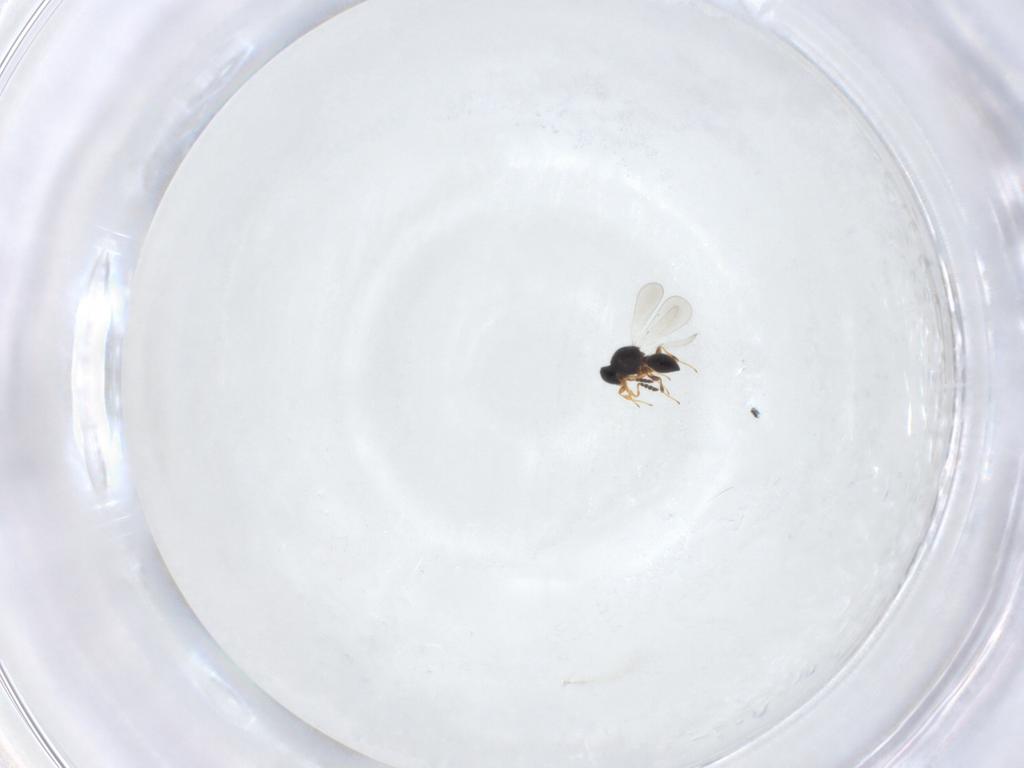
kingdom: Animalia
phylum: Arthropoda
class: Insecta
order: Hymenoptera
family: Platygastridae
